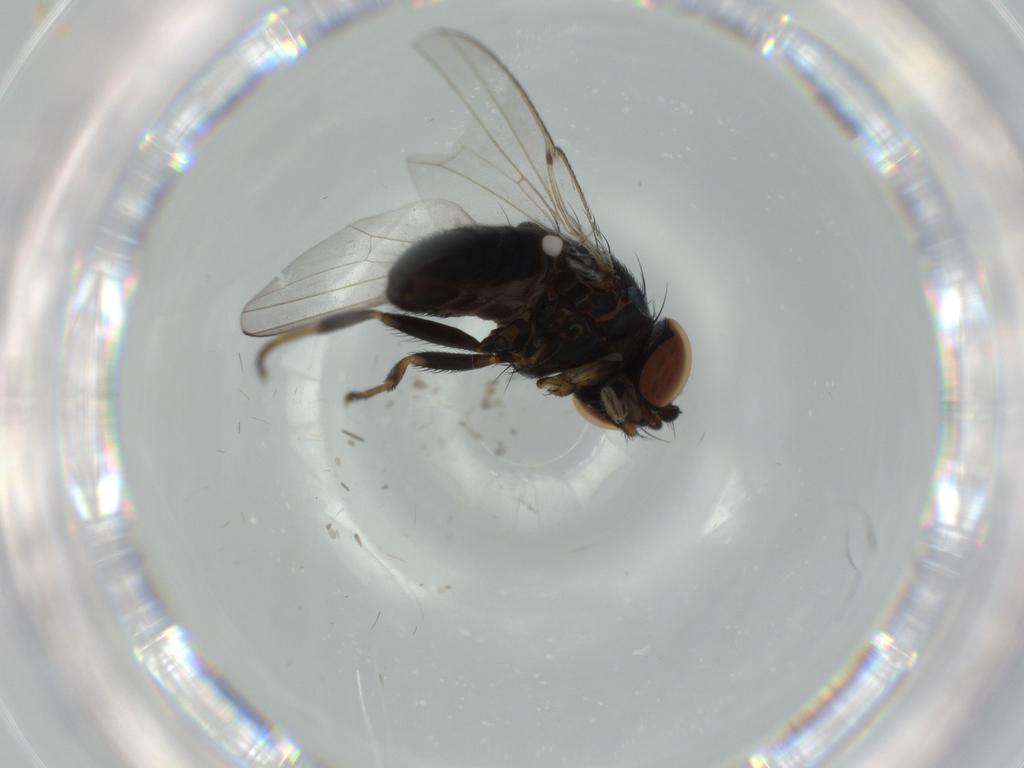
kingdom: Animalia
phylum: Arthropoda
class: Insecta
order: Diptera
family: Milichiidae
